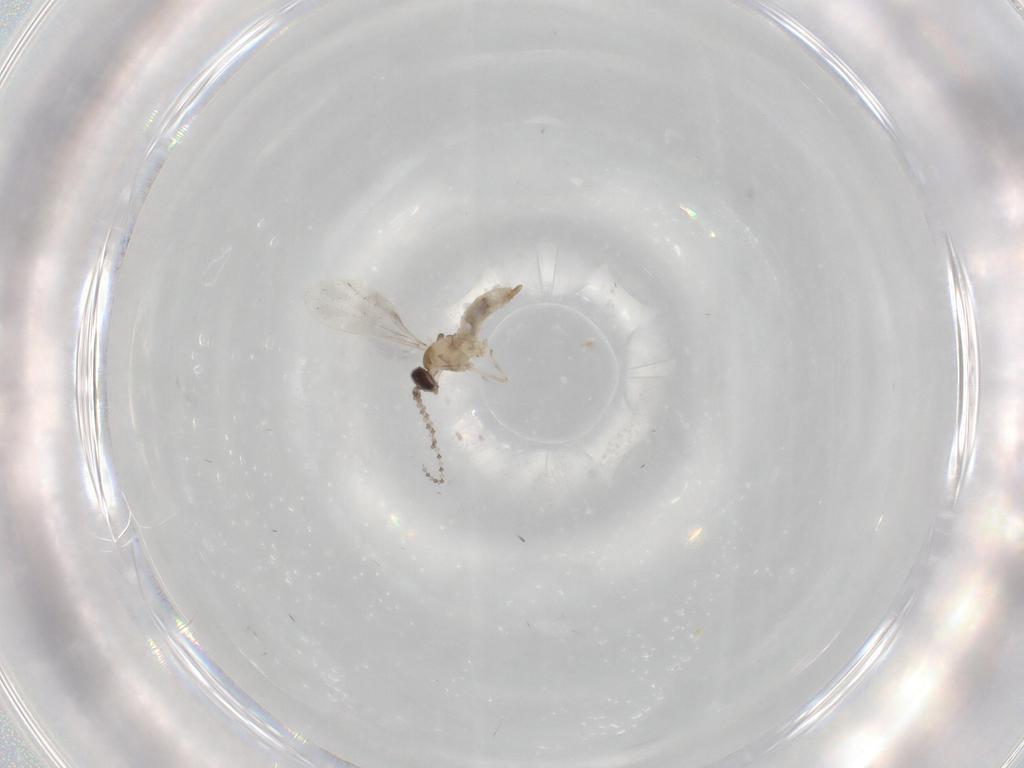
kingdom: Animalia
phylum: Arthropoda
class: Insecta
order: Diptera
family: Cecidomyiidae
